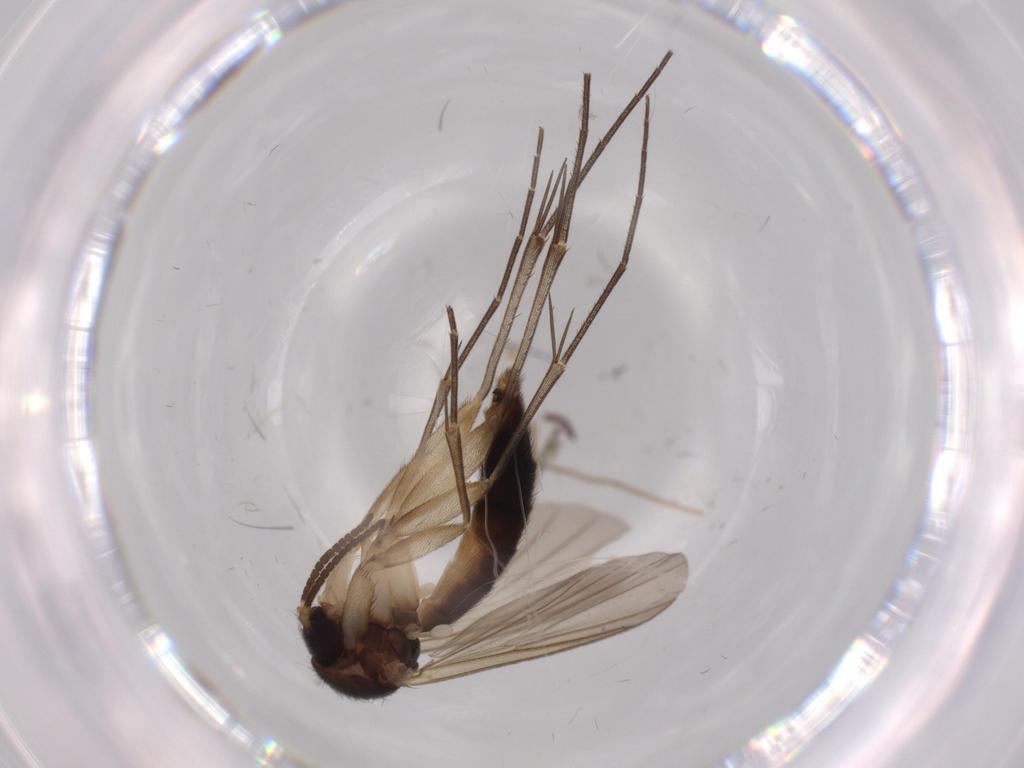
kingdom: Animalia
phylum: Arthropoda
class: Insecta
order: Diptera
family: Psychodidae
